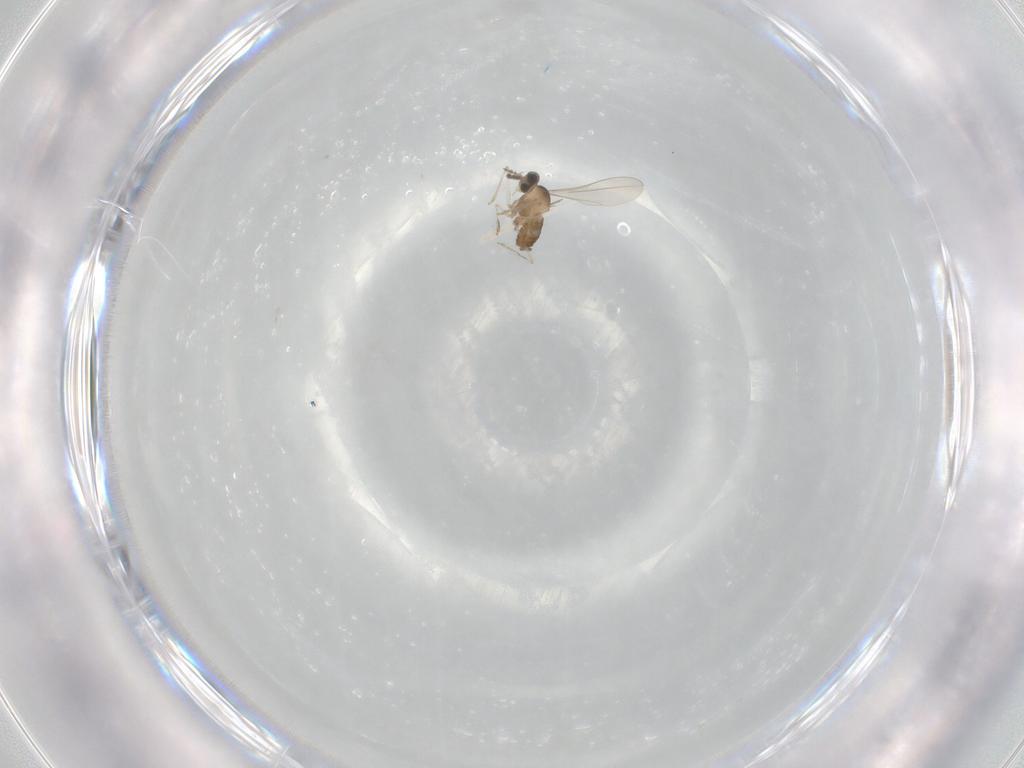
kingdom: Animalia
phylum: Arthropoda
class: Insecta
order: Diptera
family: Cecidomyiidae
